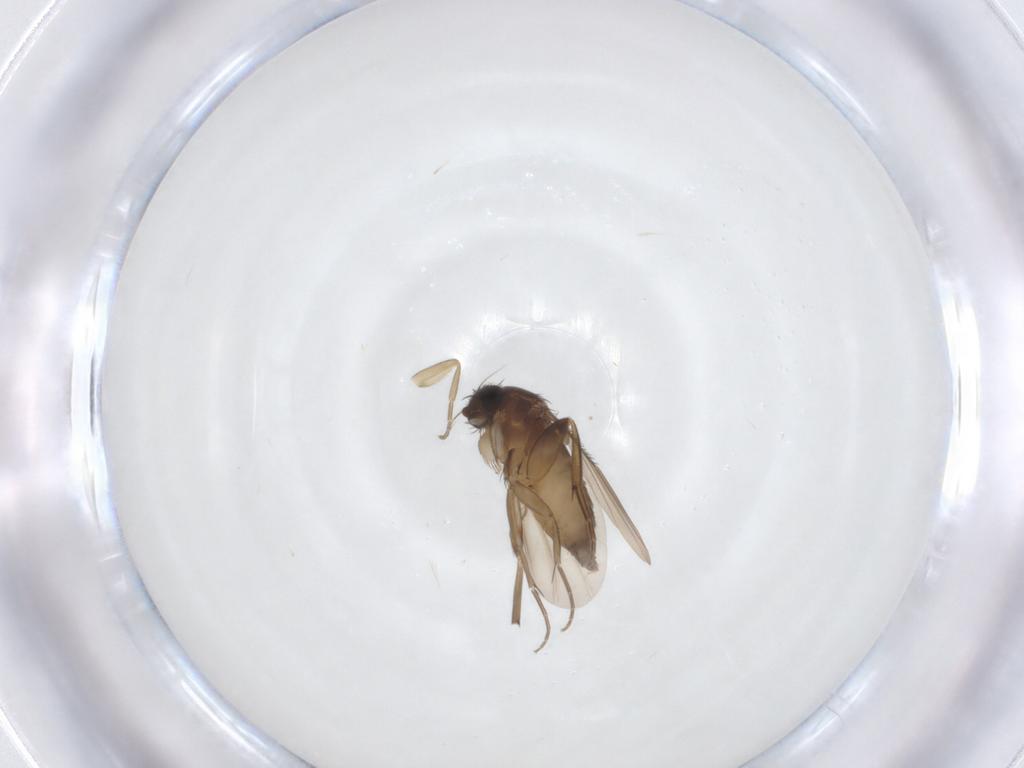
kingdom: Animalia
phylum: Arthropoda
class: Insecta
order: Diptera
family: Phoridae
